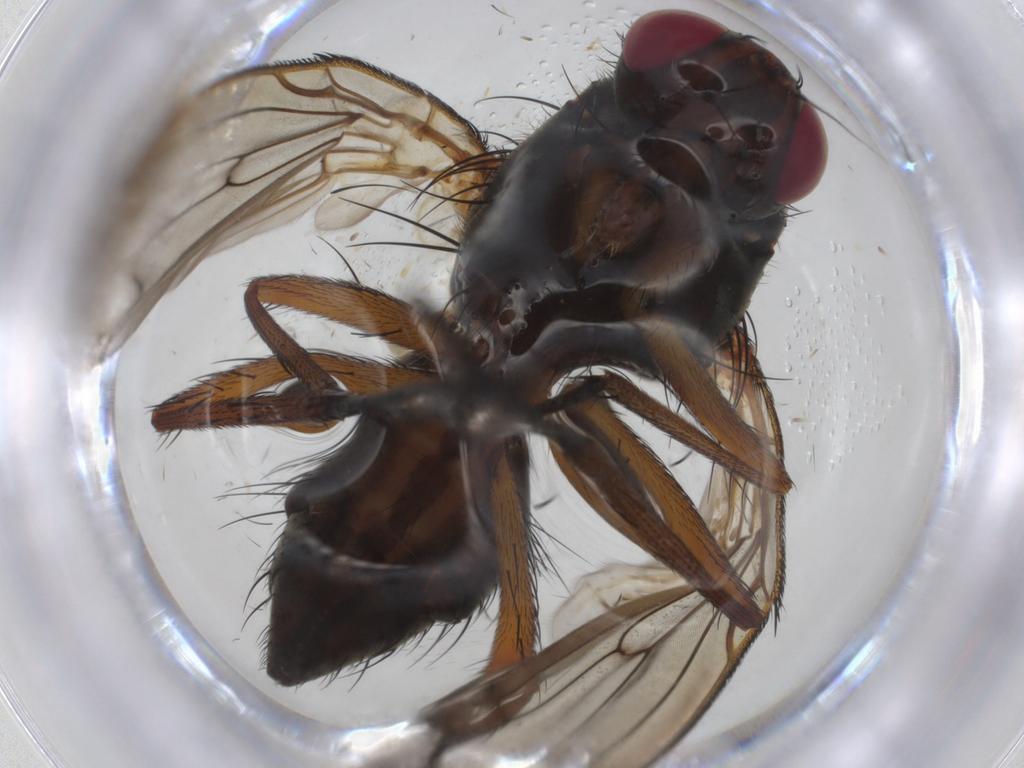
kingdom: Animalia
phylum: Arthropoda
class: Insecta
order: Diptera
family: Anthomyiidae
